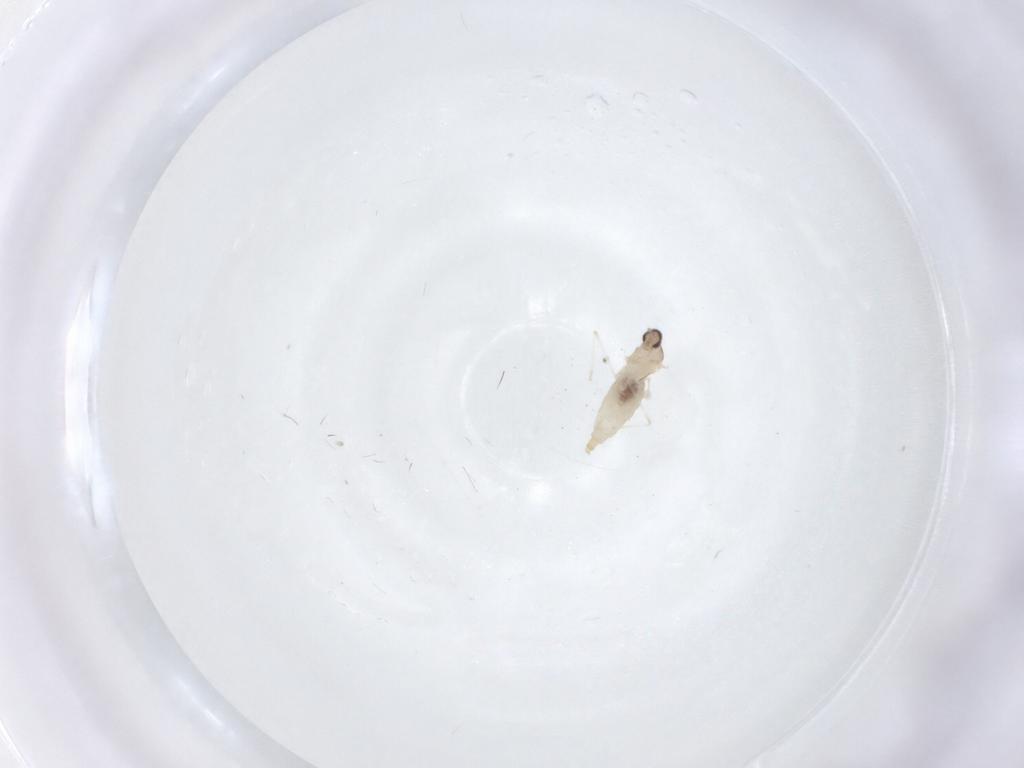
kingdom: Animalia
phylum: Arthropoda
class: Insecta
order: Diptera
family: Cecidomyiidae
